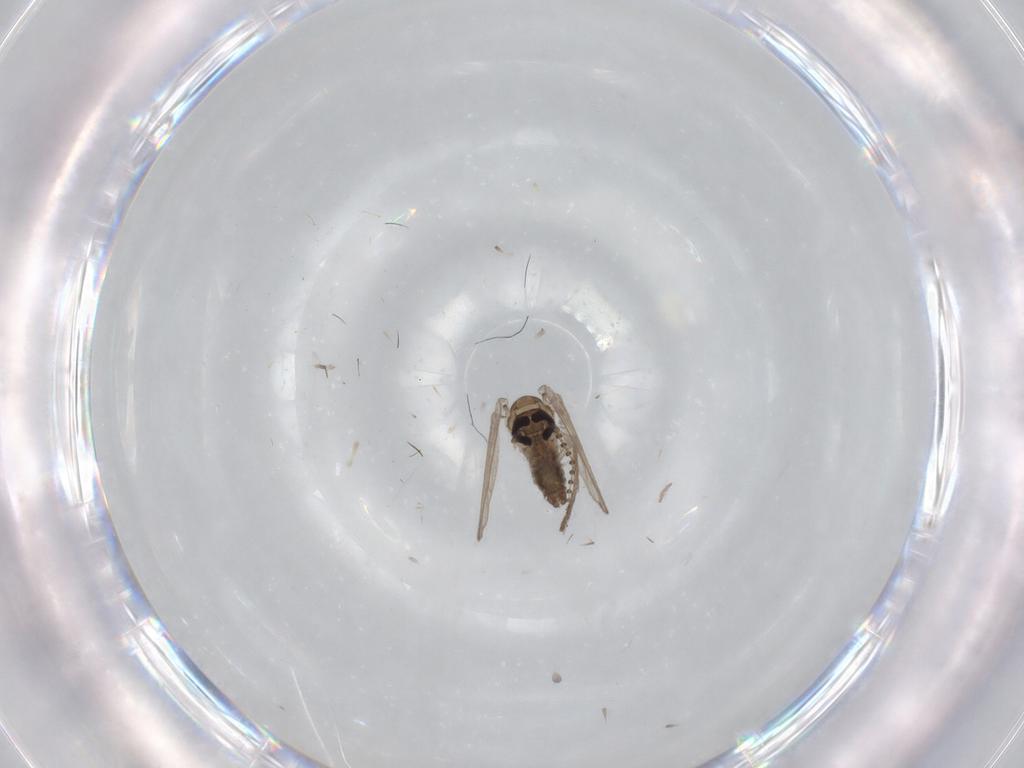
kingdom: Animalia
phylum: Arthropoda
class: Insecta
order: Diptera
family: Psychodidae
